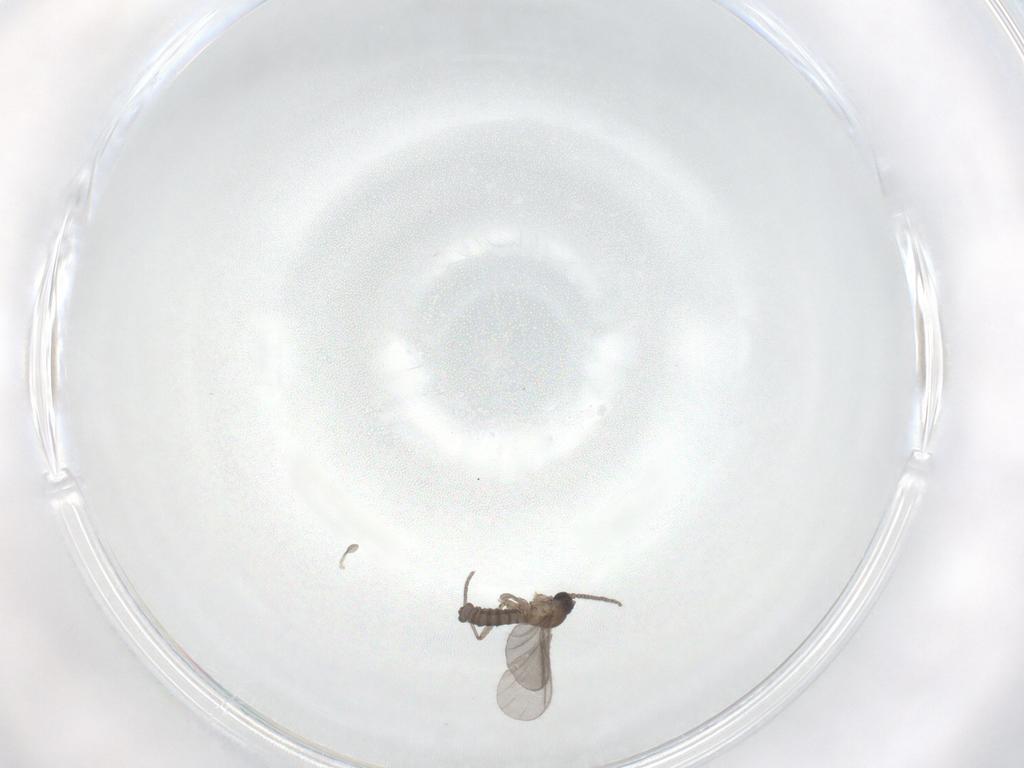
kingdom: Animalia
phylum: Arthropoda
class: Insecta
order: Diptera
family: Sciaridae
